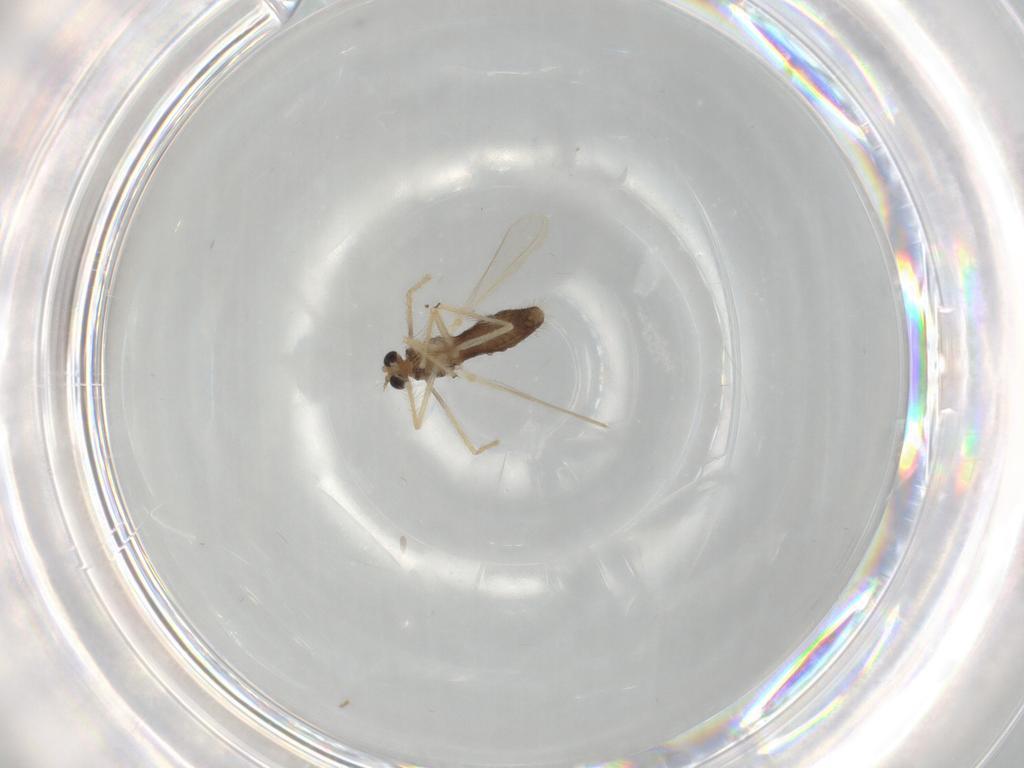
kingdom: Animalia
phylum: Arthropoda
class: Insecta
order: Diptera
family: Chironomidae
